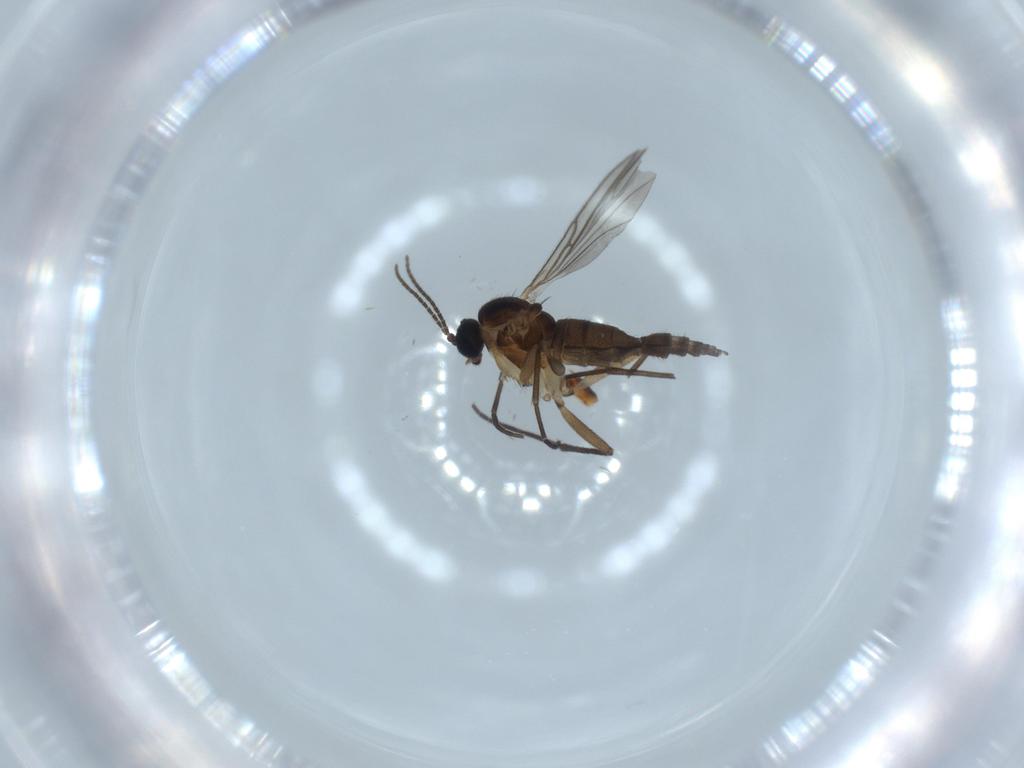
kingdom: Animalia
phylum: Arthropoda
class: Insecta
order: Diptera
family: Sciaridae
